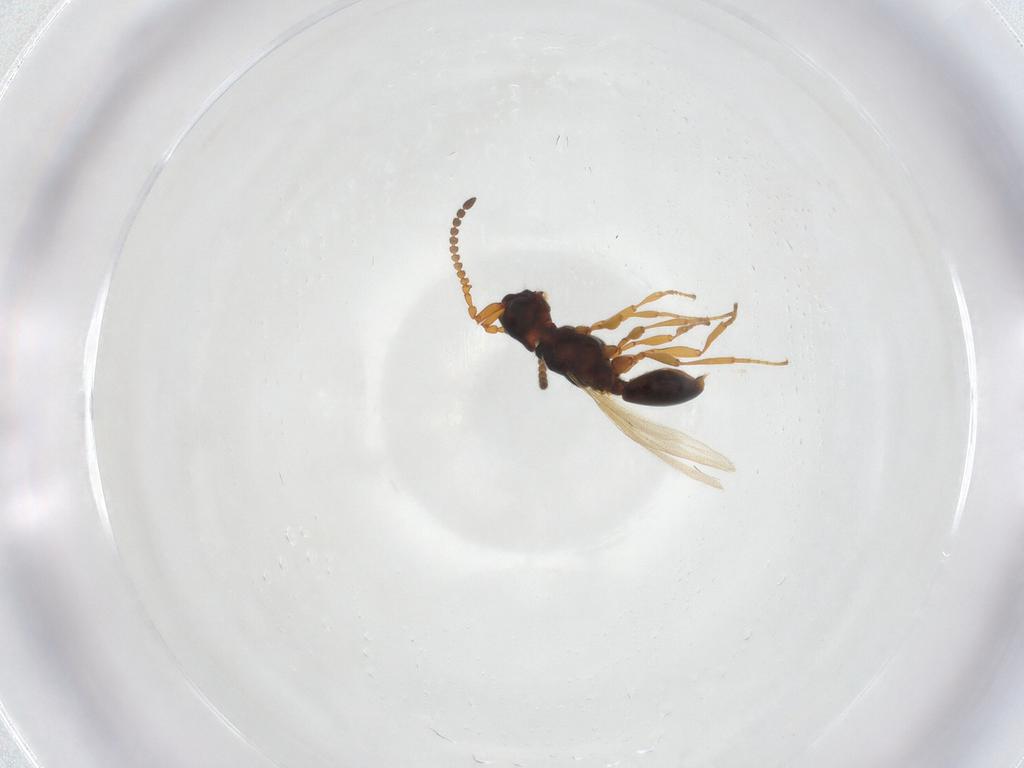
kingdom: Animalia
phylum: Arthropoda
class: Insecta
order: Hymenoptera
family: Diapriidae
